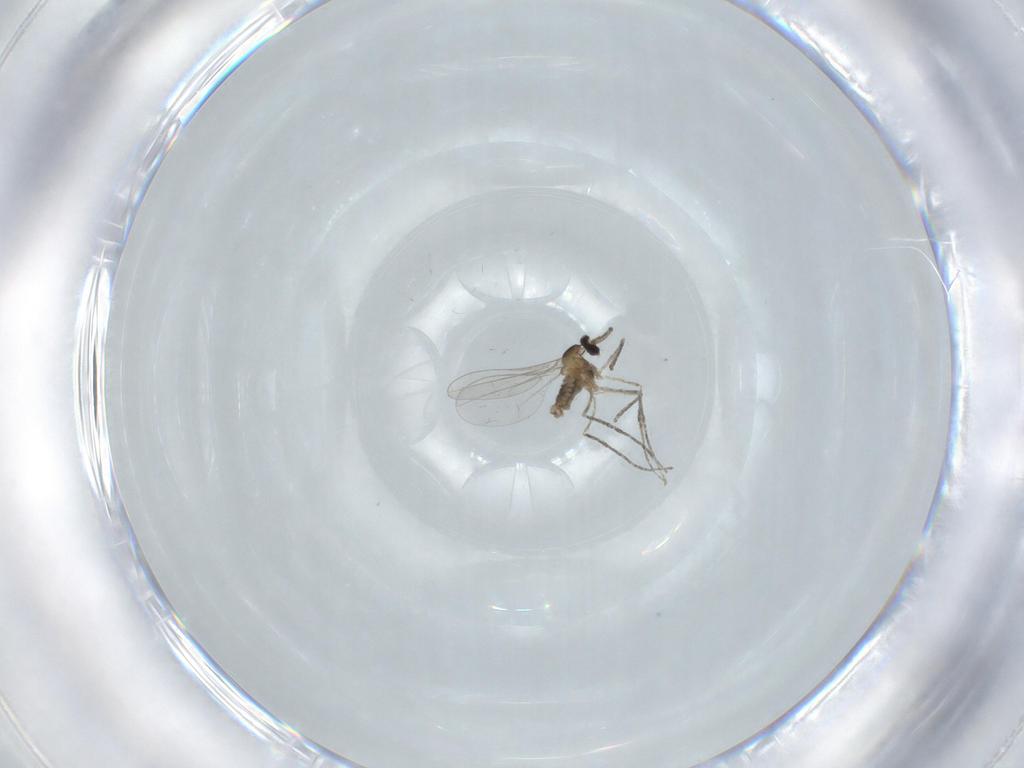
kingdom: Animalia
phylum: Arthropoda
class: Insecta
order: Diptera
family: Cecidomyiidae
